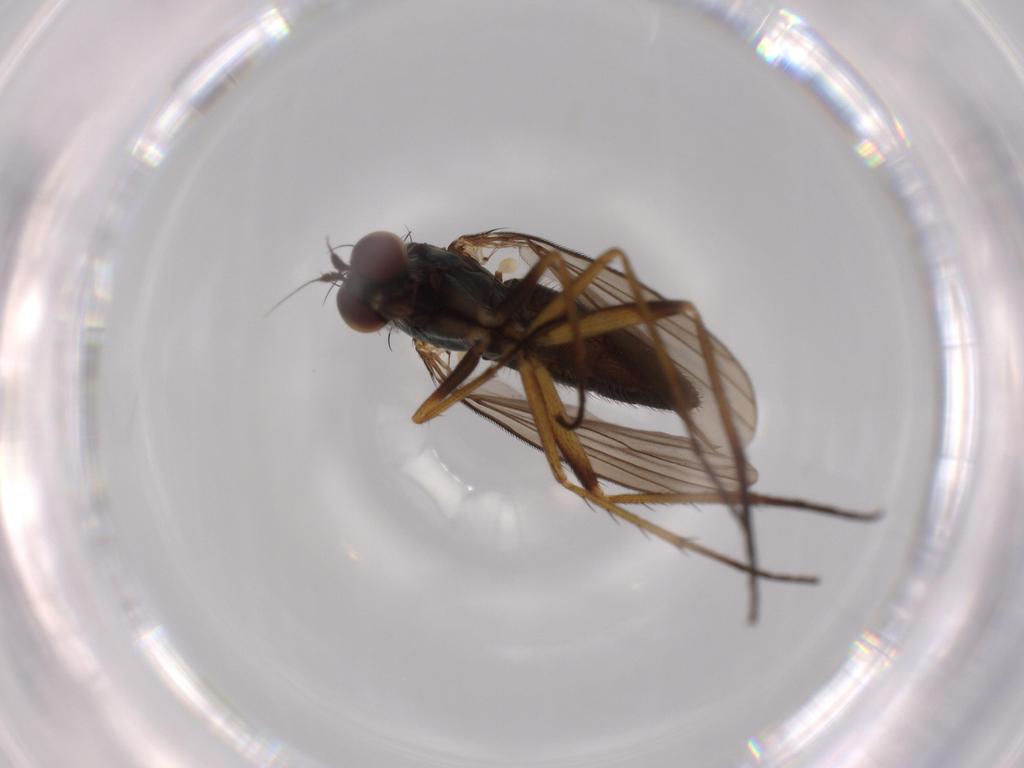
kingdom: Animalia
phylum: Arthropoda
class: Insecta
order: Diptera
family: Dolichopodidae
